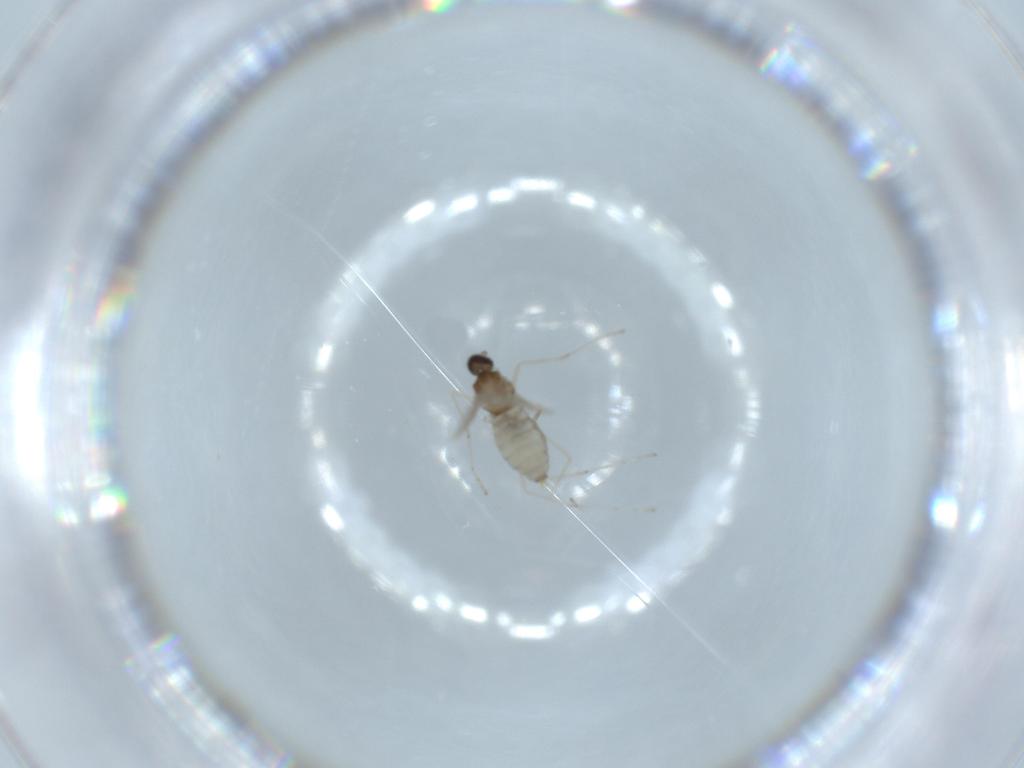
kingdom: Animalia
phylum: Arthropoda
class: Insecta
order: Diptera
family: Cecidomyiidae
